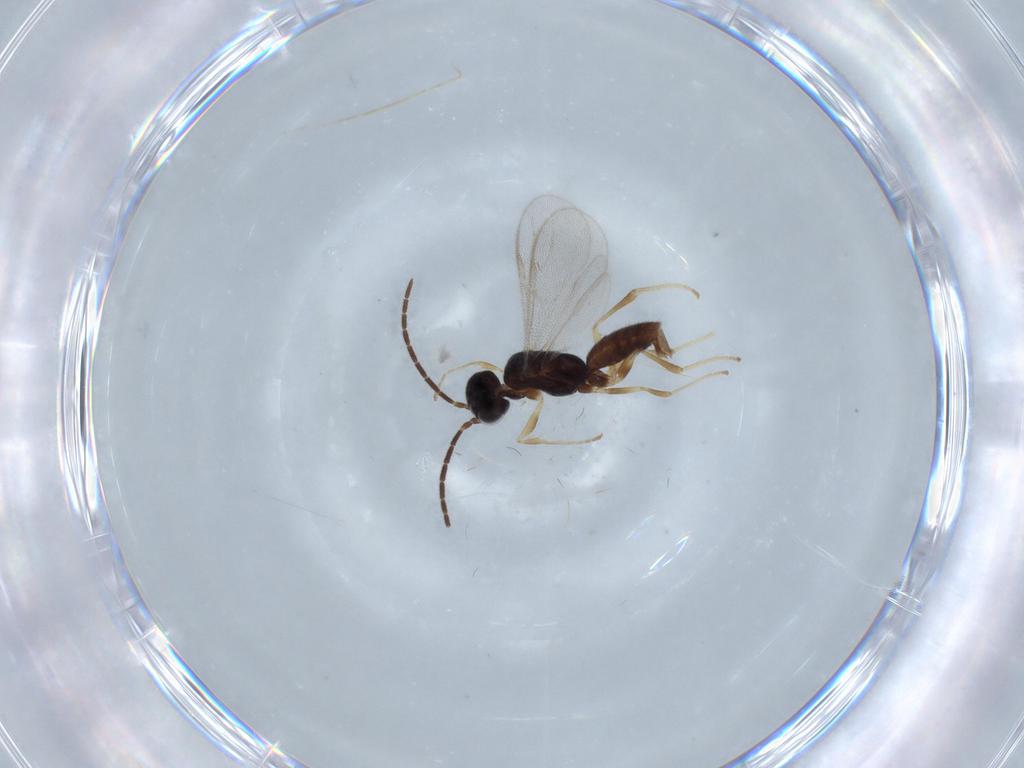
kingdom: Animalia
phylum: Arthropoda
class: Insecta
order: Hymenoptera
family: Dryinidae
